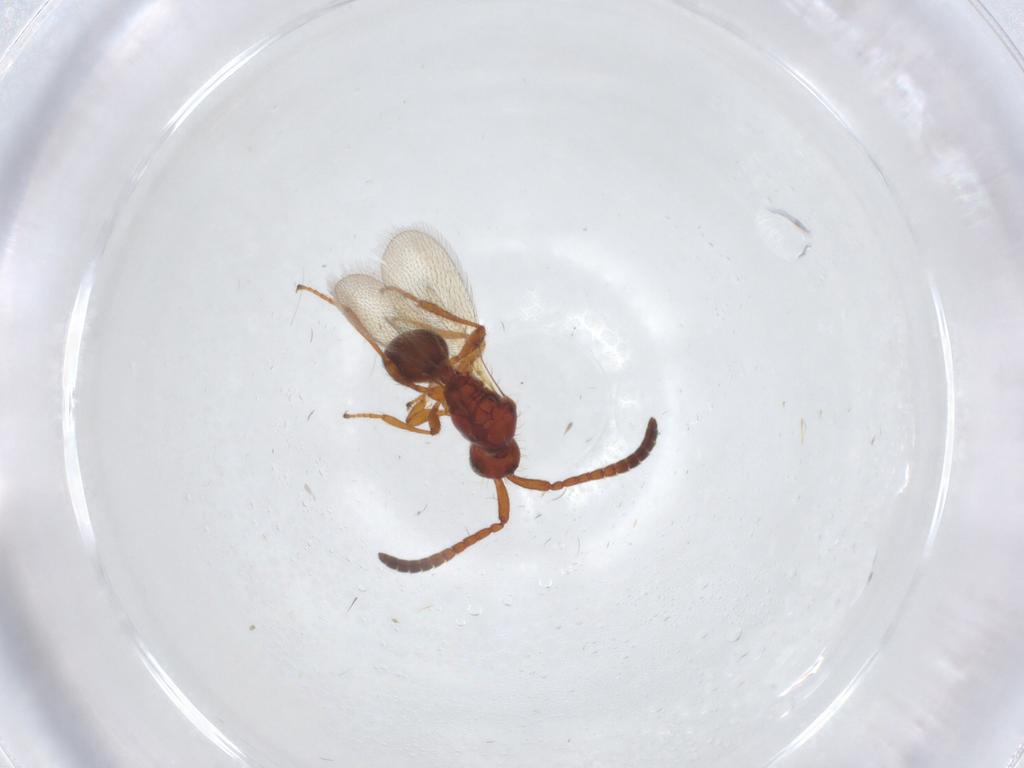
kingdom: Animalia
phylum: Arthropoda
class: Insecta
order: Hymenoptera
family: Diapriidae
